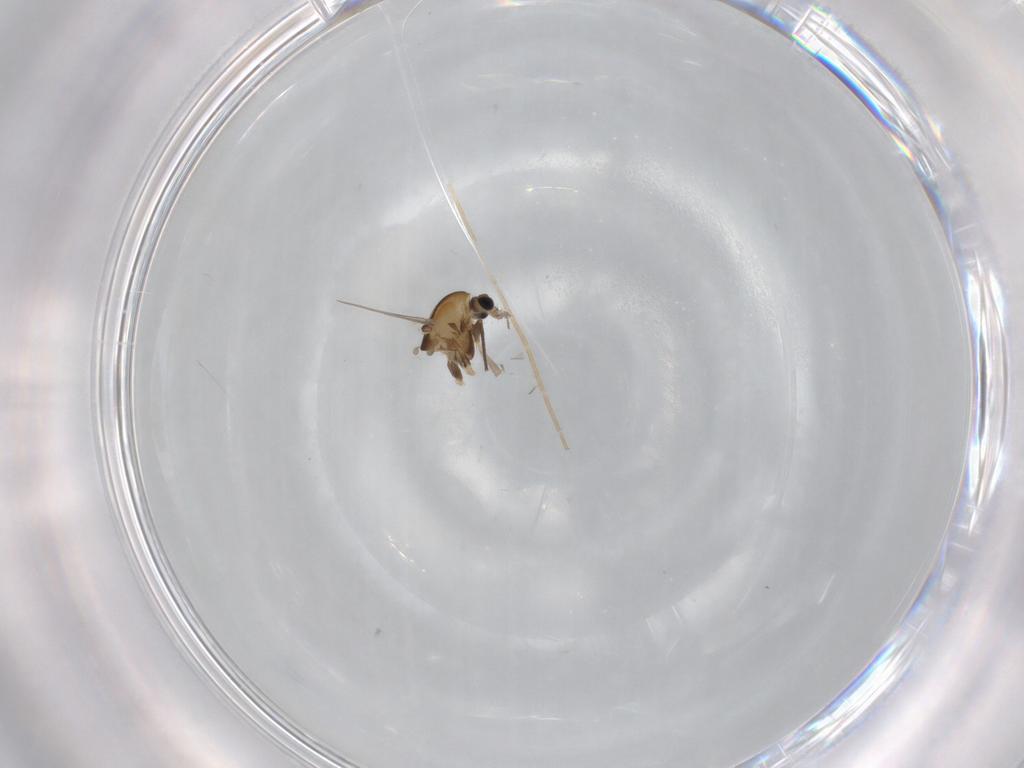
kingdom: Animalia
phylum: Arthropoda
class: Insecta
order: Diptera
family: Chironomidae
